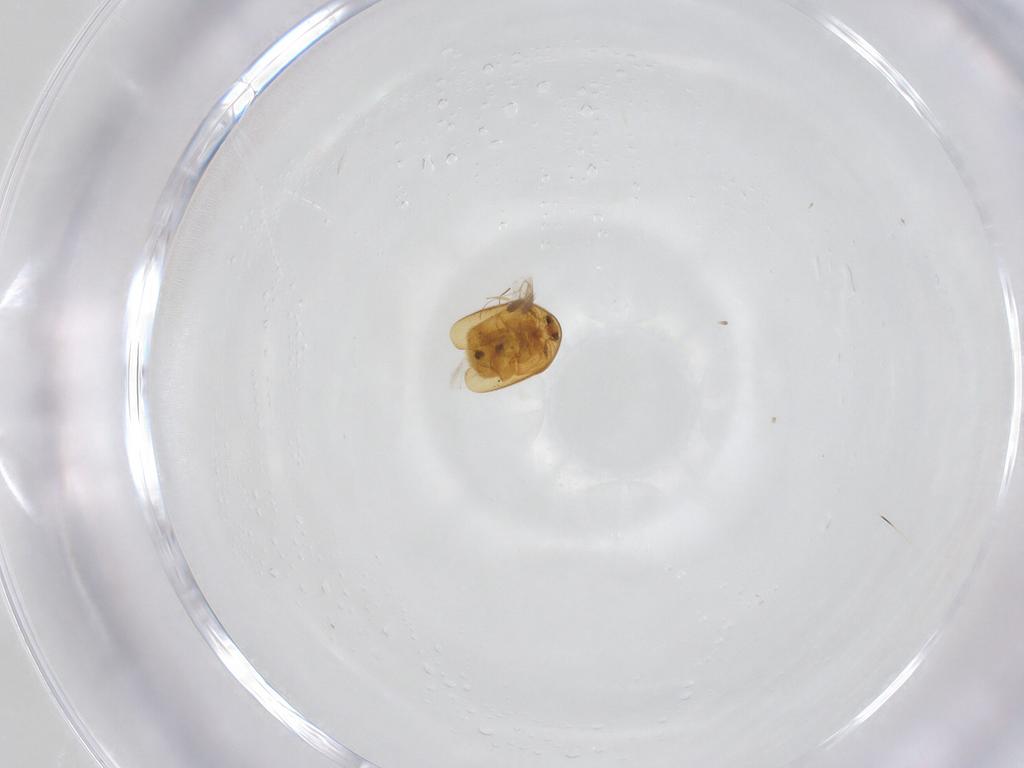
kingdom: Animalia
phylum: Arthropoda
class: Insecta
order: Coleoptera
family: Corylophidae
